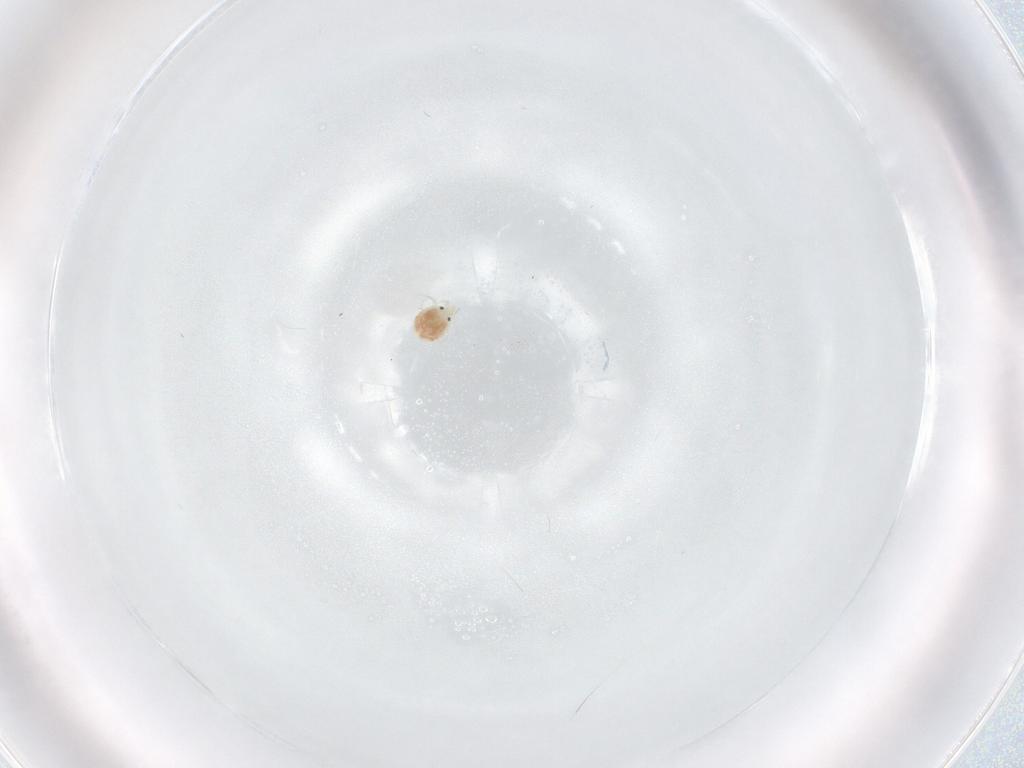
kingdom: Animalia
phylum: Arthropoda
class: Arachnida
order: Trombidiformes
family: Pionidae
